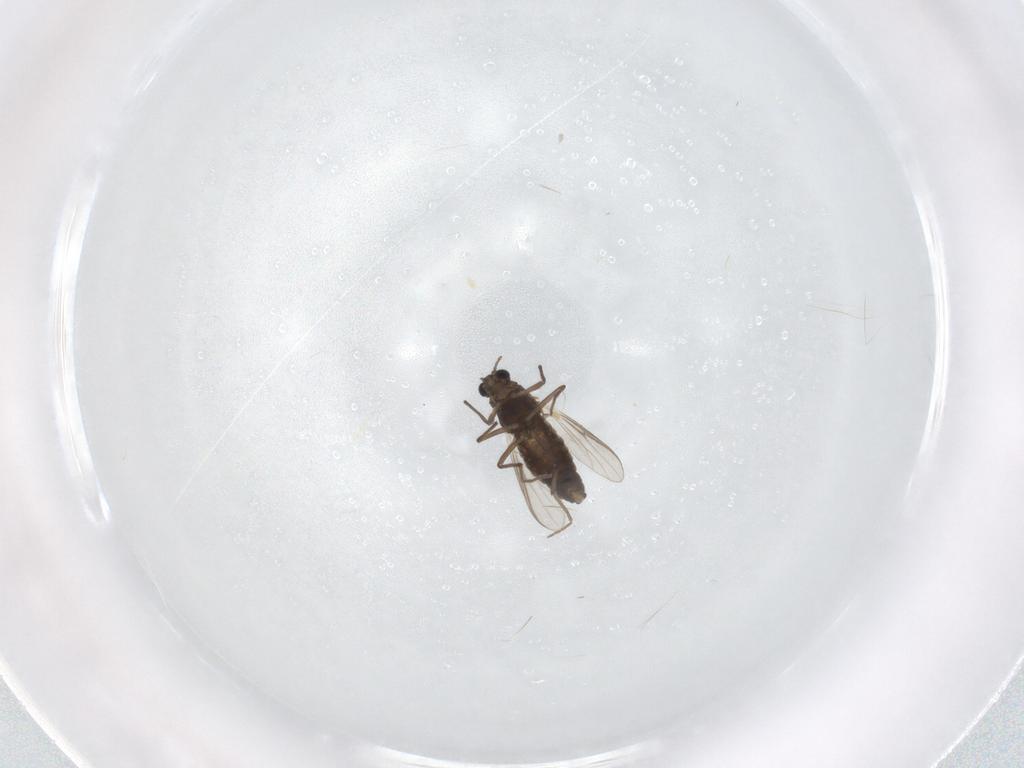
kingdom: Animalia
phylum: Arthropoda
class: Insecta
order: Diptera
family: Chironomidae
